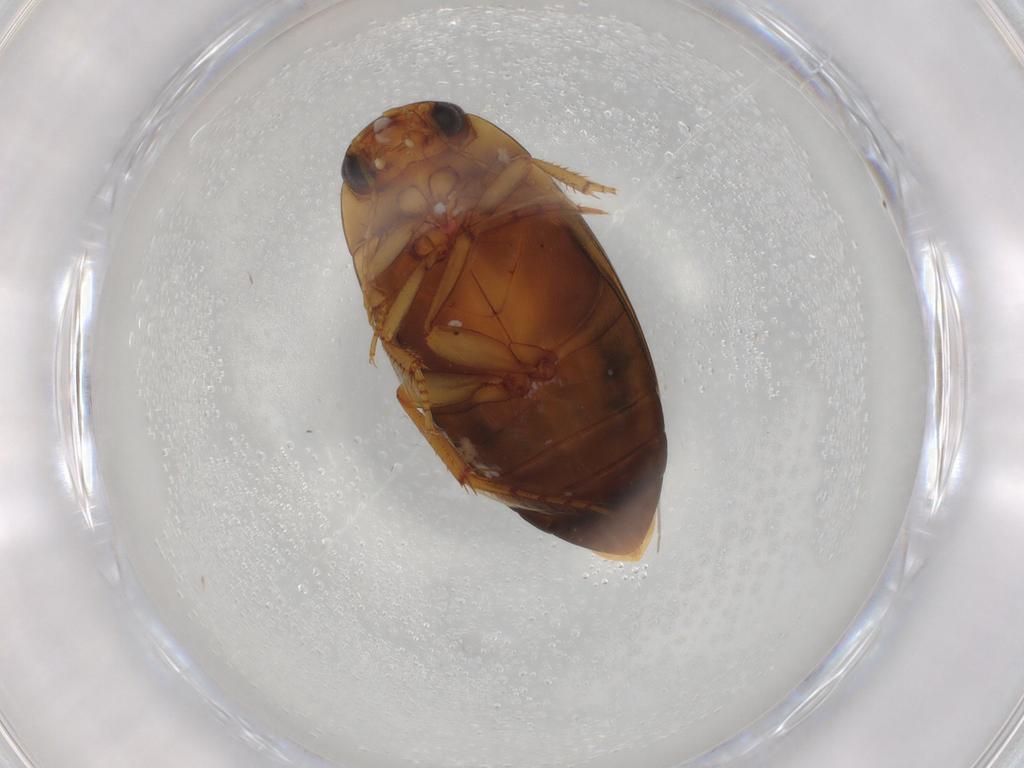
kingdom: Animalia
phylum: Arthropoda
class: Insecta
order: Coleoptera
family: Dytiscidae
